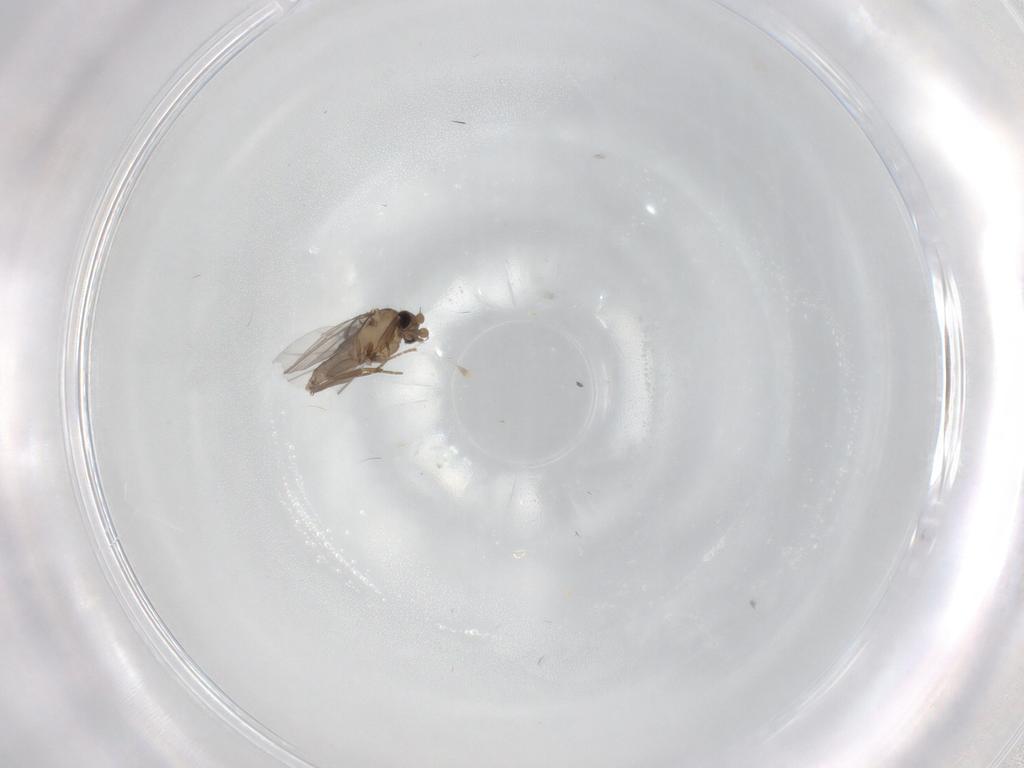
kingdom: Animalia
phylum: Arthropoda
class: Insecta
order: Diptera
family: Sciaridae
